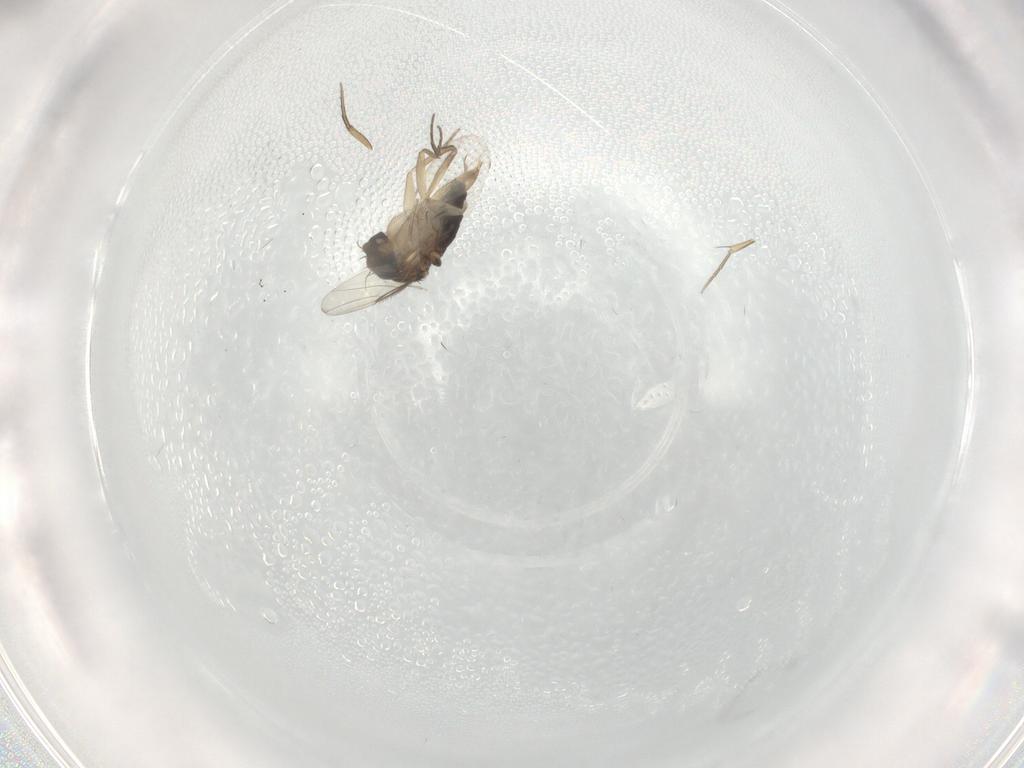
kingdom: Animalia
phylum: Arthropoda
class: Insecta
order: Diptera
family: Phoridae
